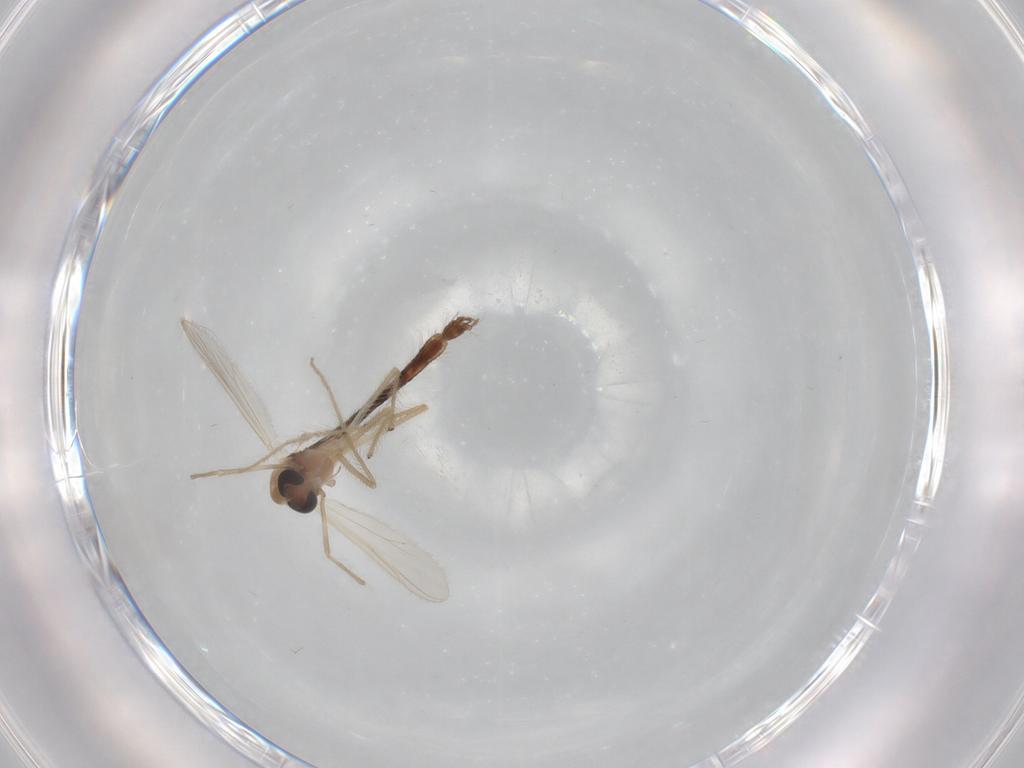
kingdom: Animalia
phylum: Arthropoda
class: Insecta
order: Diptera
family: Chironomidae
